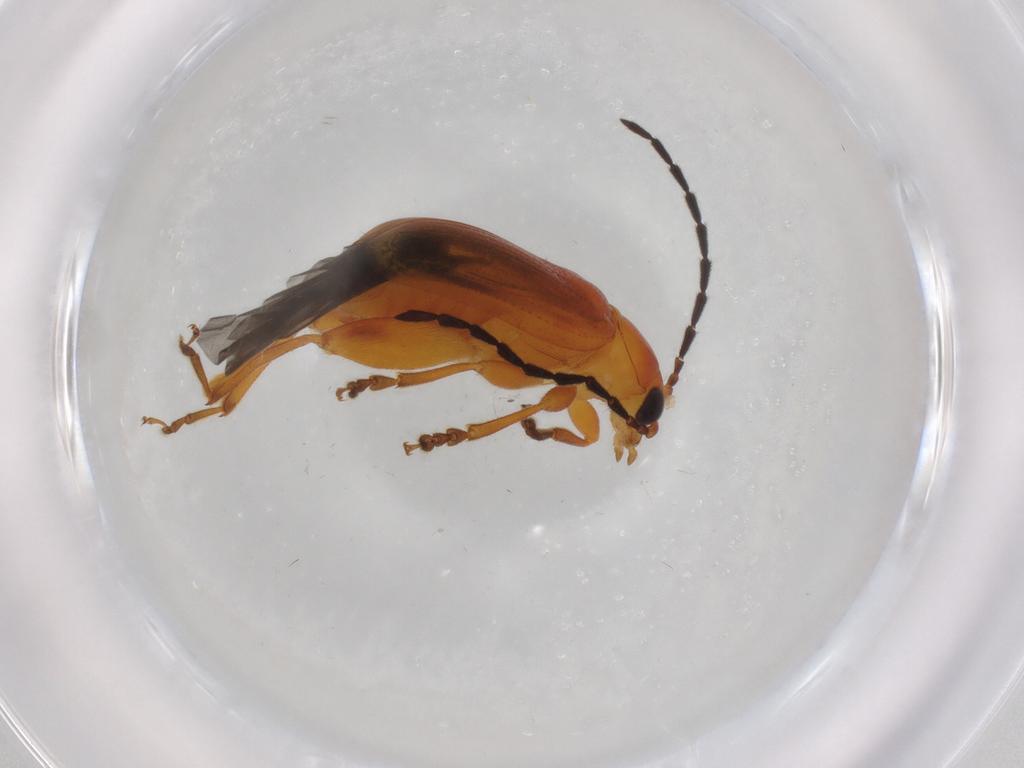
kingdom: Animalia
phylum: Arthropoda
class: Insecta
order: Coleoptera
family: Chrysomelidae
